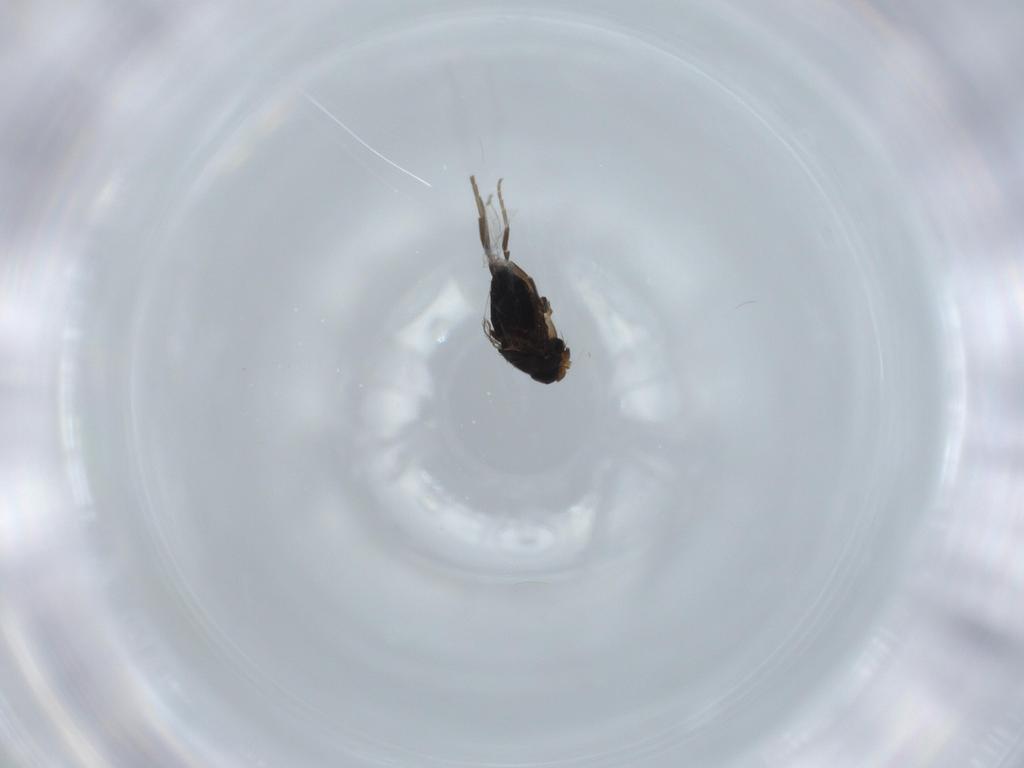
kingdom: Animalia
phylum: Arthropoda
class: Insecta
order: Diptera
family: Phoridae
